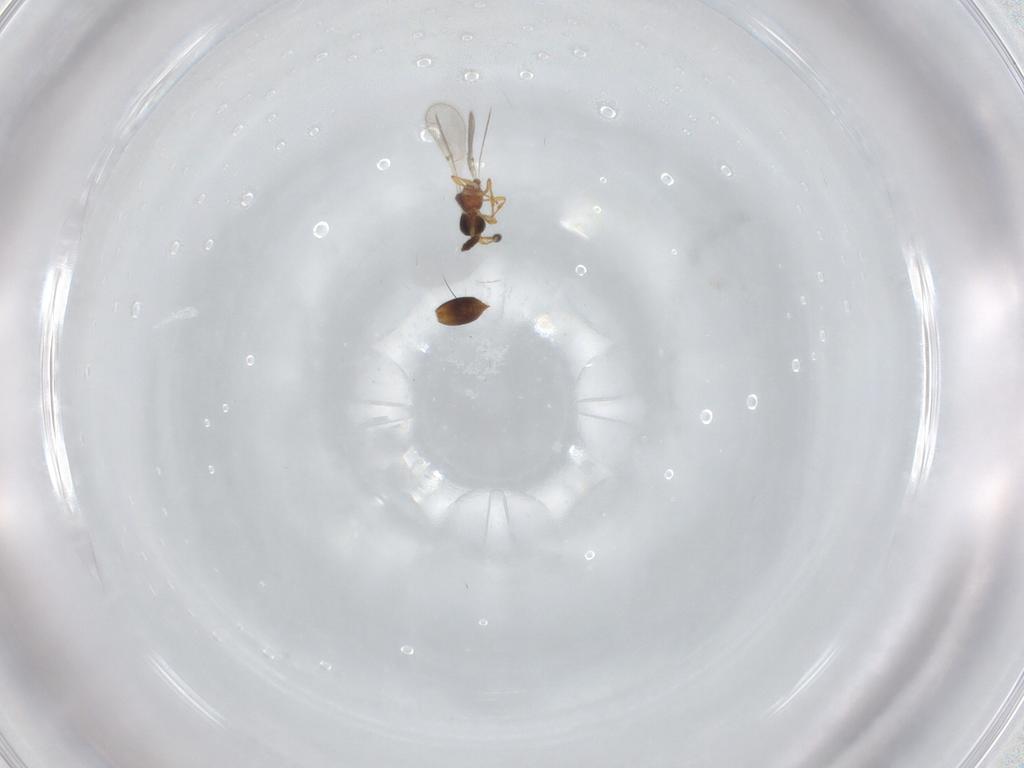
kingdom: Animalia
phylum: Arthropoda
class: Insecta
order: Hymenoptera
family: Diapriidae
